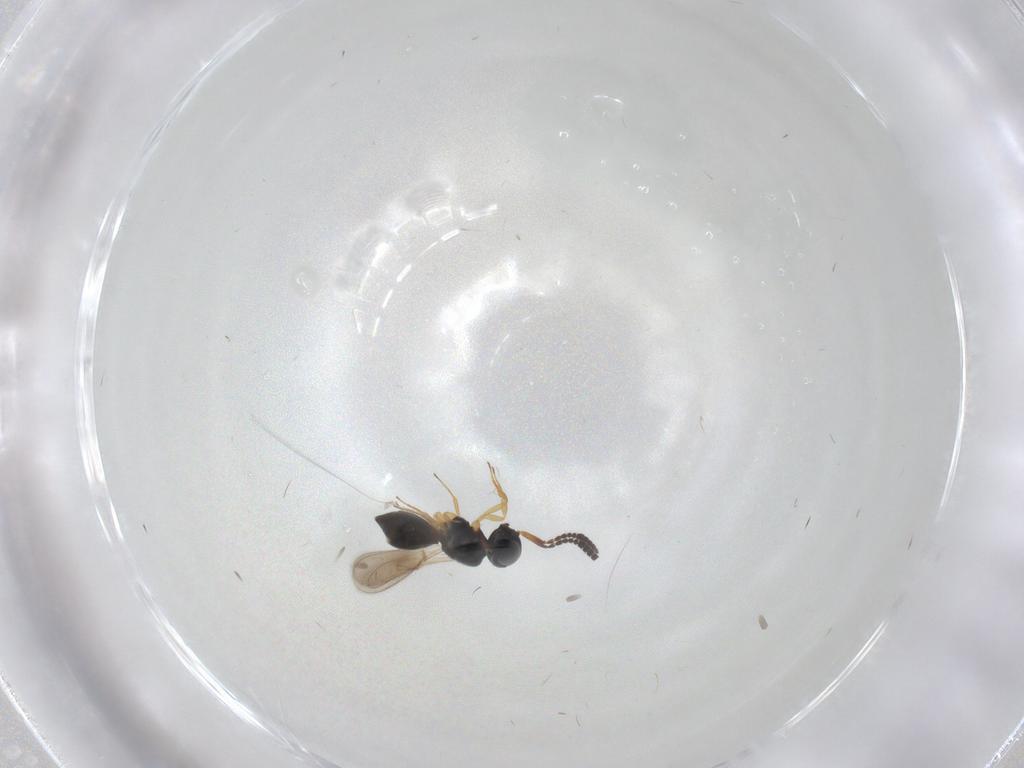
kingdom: Animalia
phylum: Arthropoda
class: Insecta
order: Hymenoptera
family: Scelionidae
